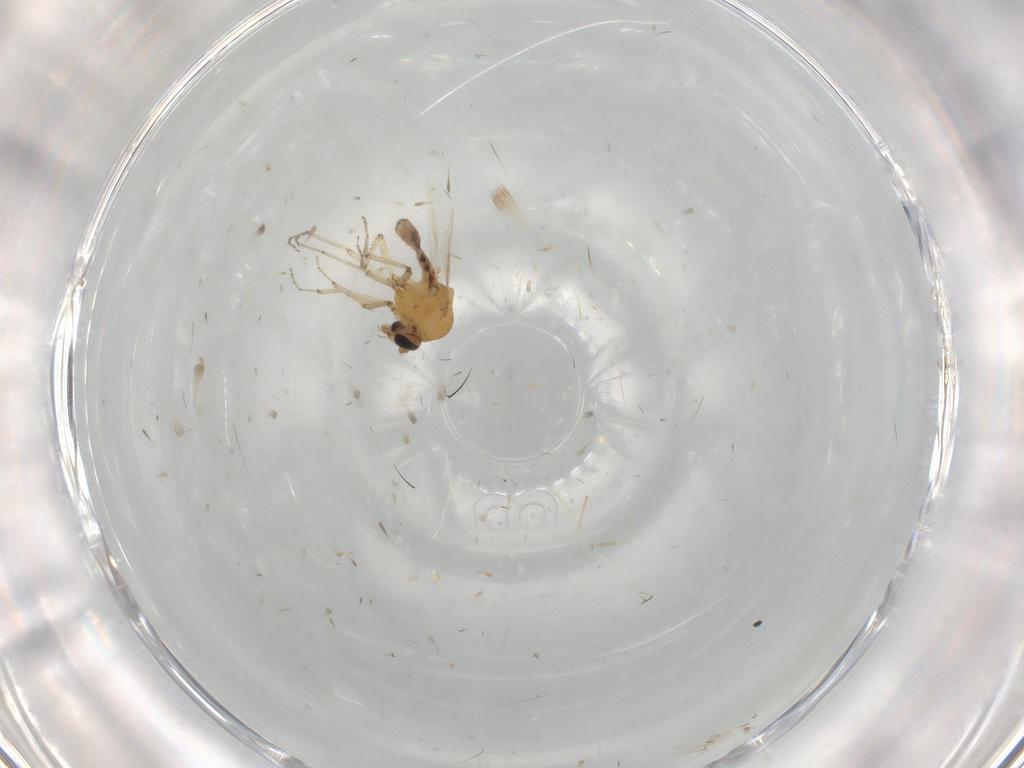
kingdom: Animalia
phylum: Arthropoda
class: Insecta
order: Diptera
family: Ceratopogonidae
